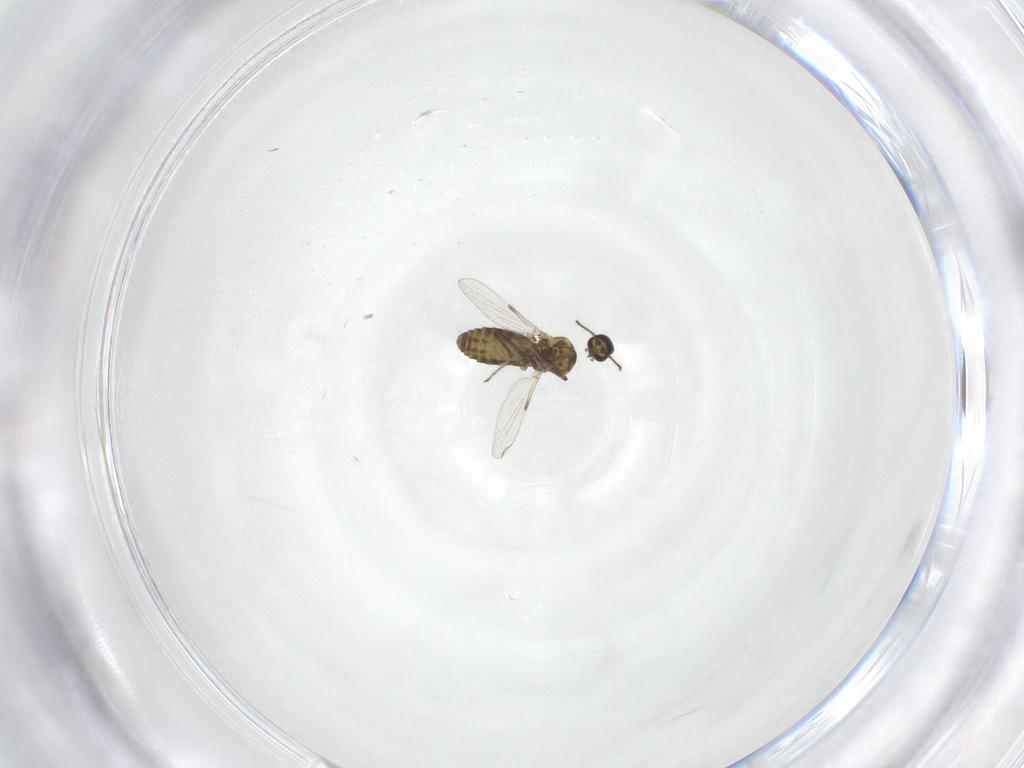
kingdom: Animalia
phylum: Arthropoda
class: Insecta
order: Diptera
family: Ceratopogonidae
